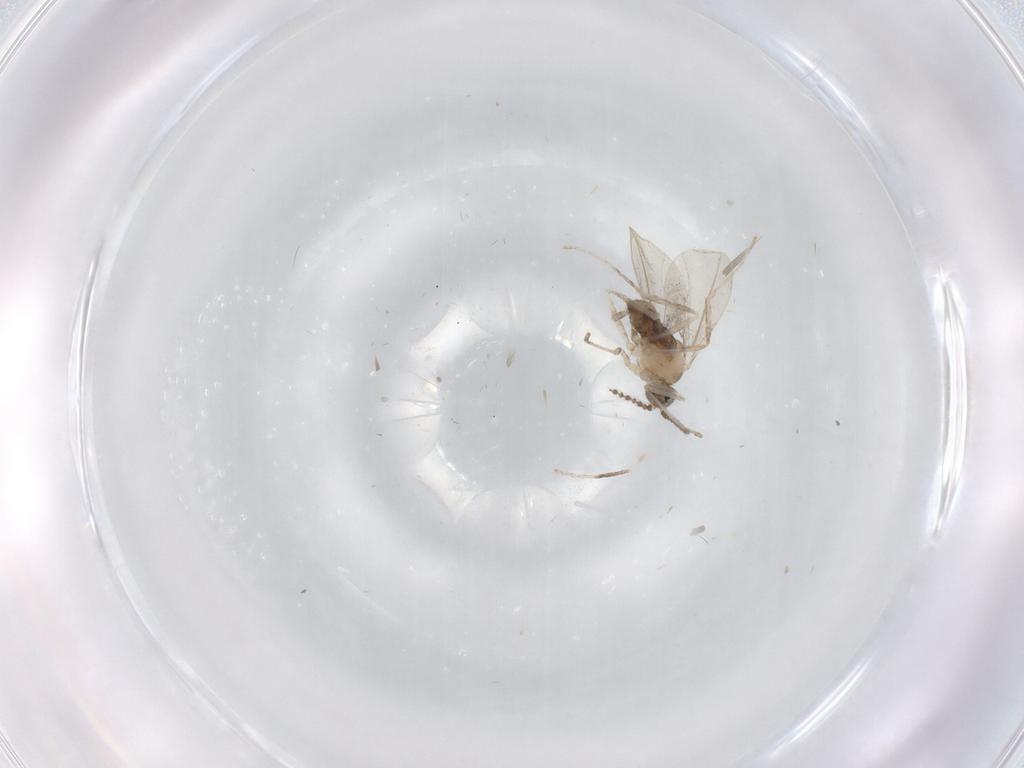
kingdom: Animalia
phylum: Arthropoda
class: Insecta
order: Diptera
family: Cecidomyiidae
